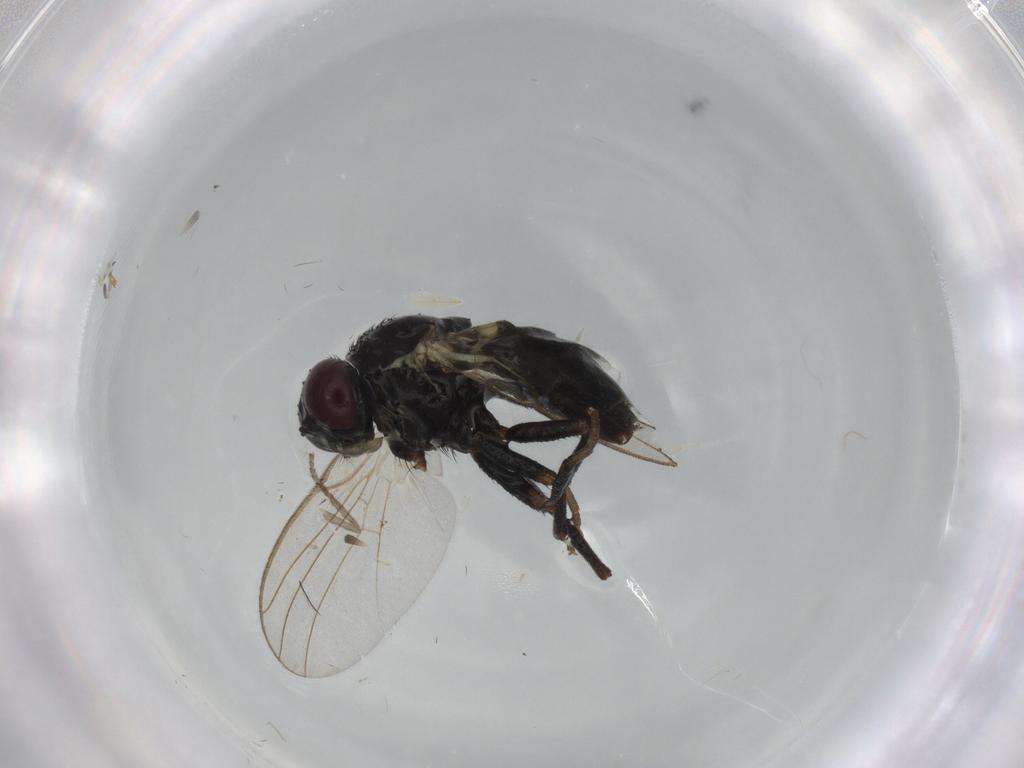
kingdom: Animalia
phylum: Arthropoda
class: Insecta
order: Diptera
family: Agromyzidae
